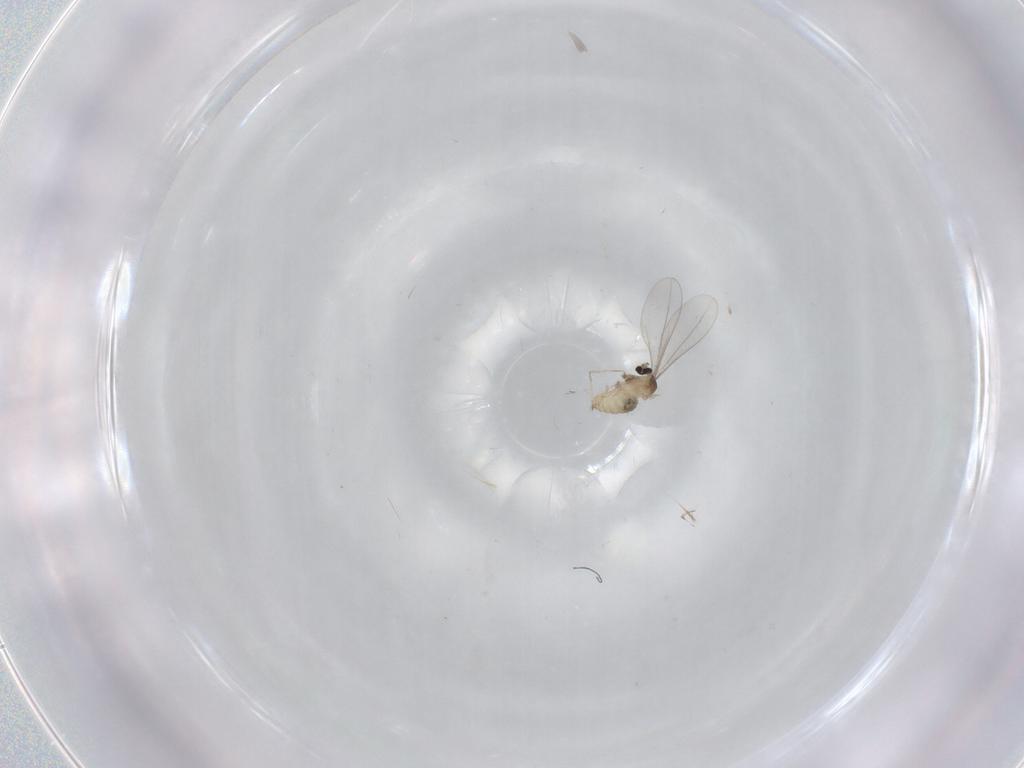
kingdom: Animalia
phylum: Arthropoda
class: Insecta
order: Diptera
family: Cecidomyiidae
